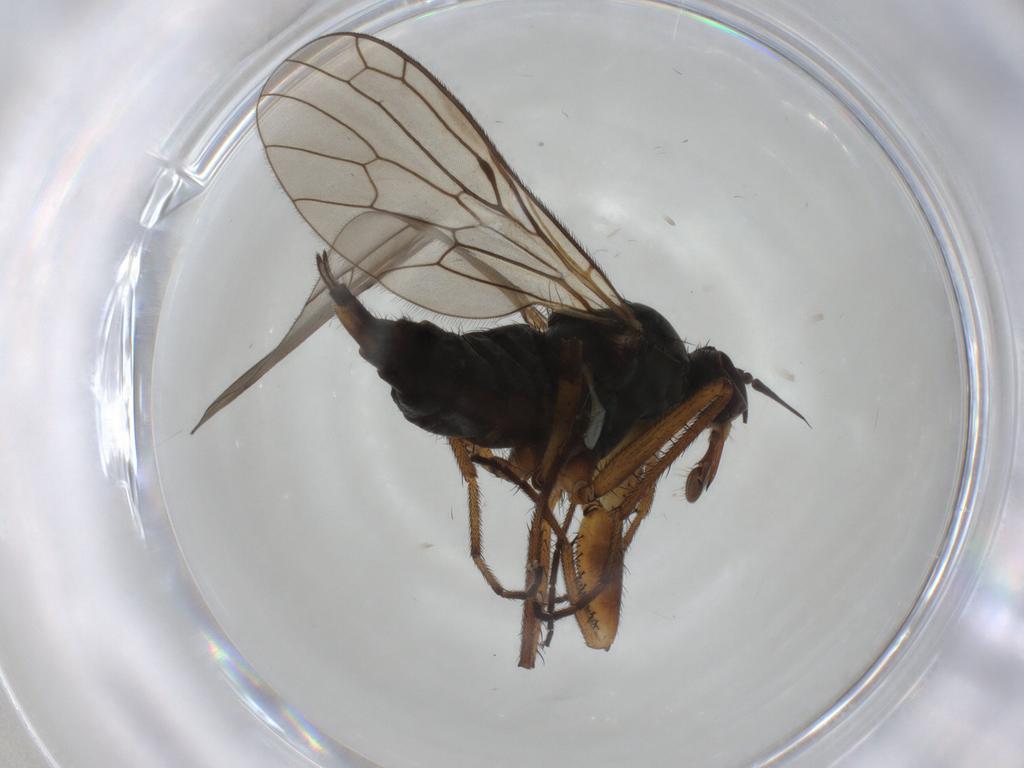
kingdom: Animalia
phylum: Arthropoda
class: Insecta
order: Diptera
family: Cecidomyiidae
